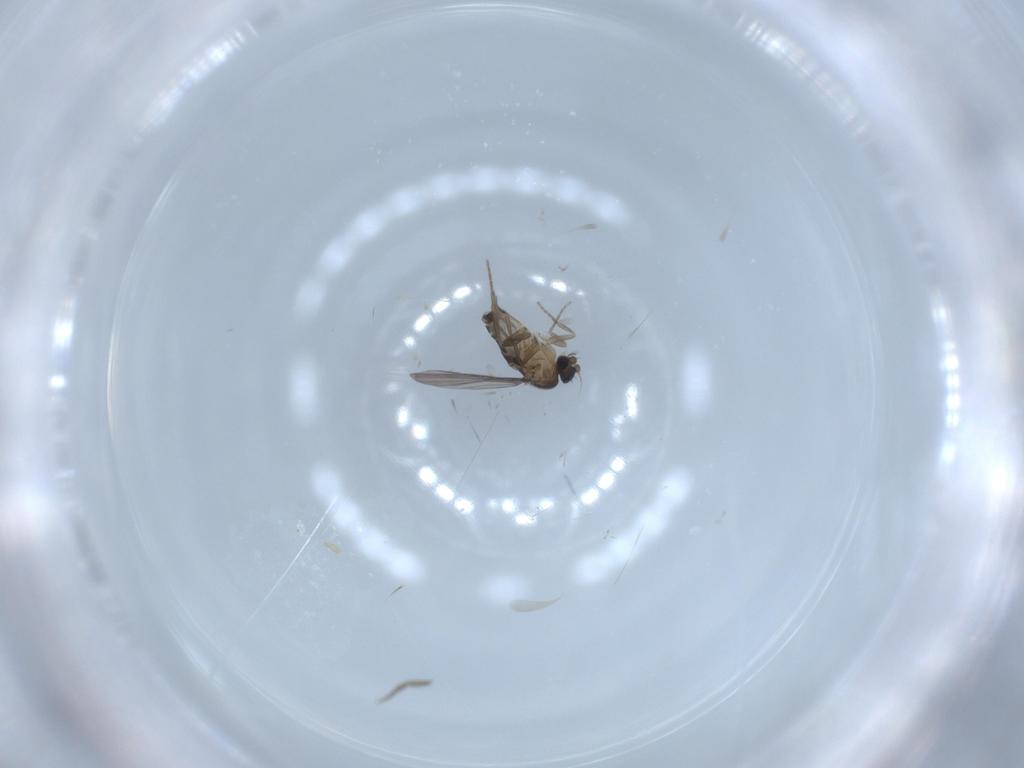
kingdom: Animalia
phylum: Arthropoda
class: Insecta
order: Diptera
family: Phoridae
